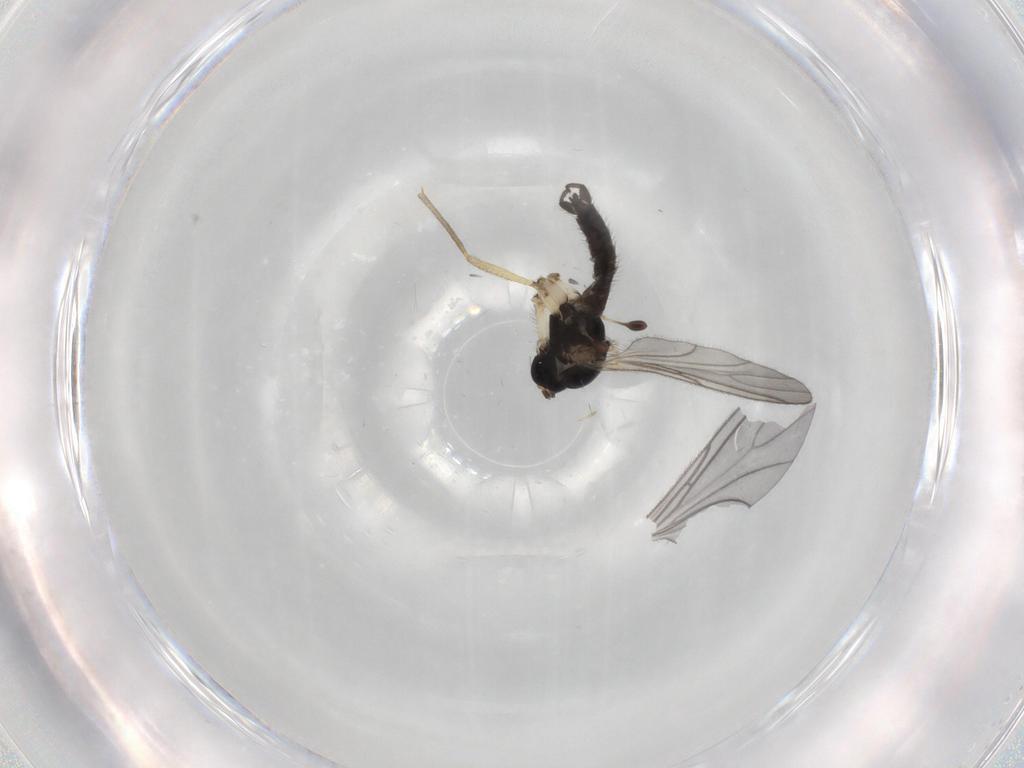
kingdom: Animalia
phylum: Arthropoda
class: Insecta
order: Diptera
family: Sciaridae
